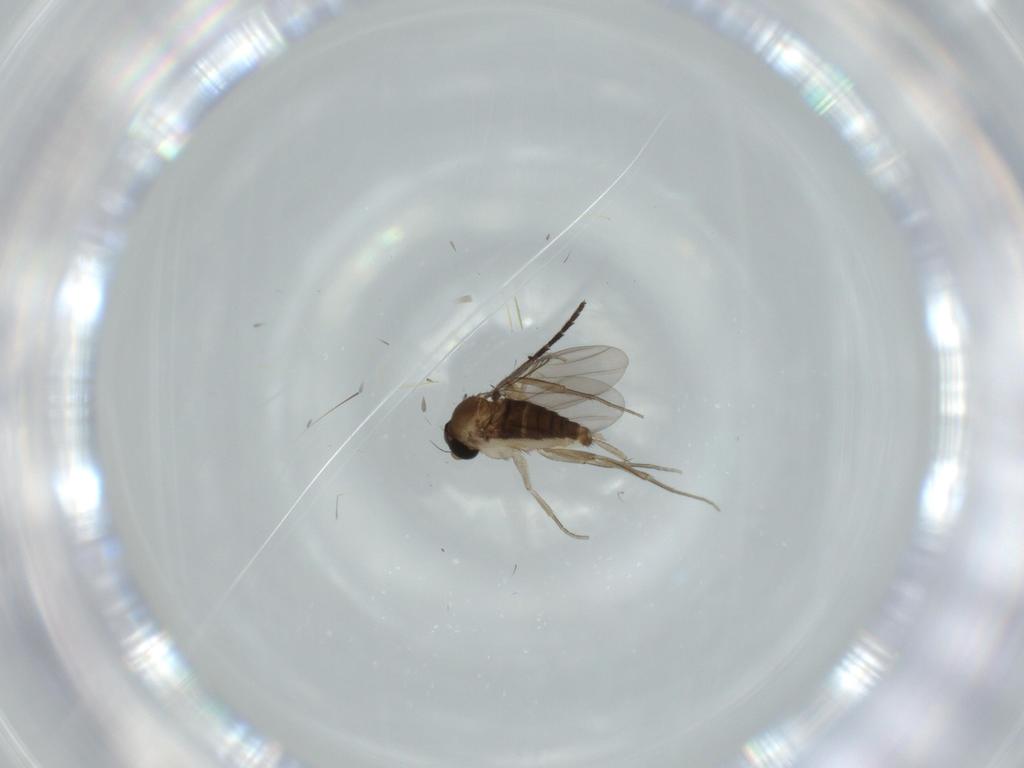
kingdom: Animalia
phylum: Arthropoda
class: Insecta
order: Diptera
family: Phoridae
